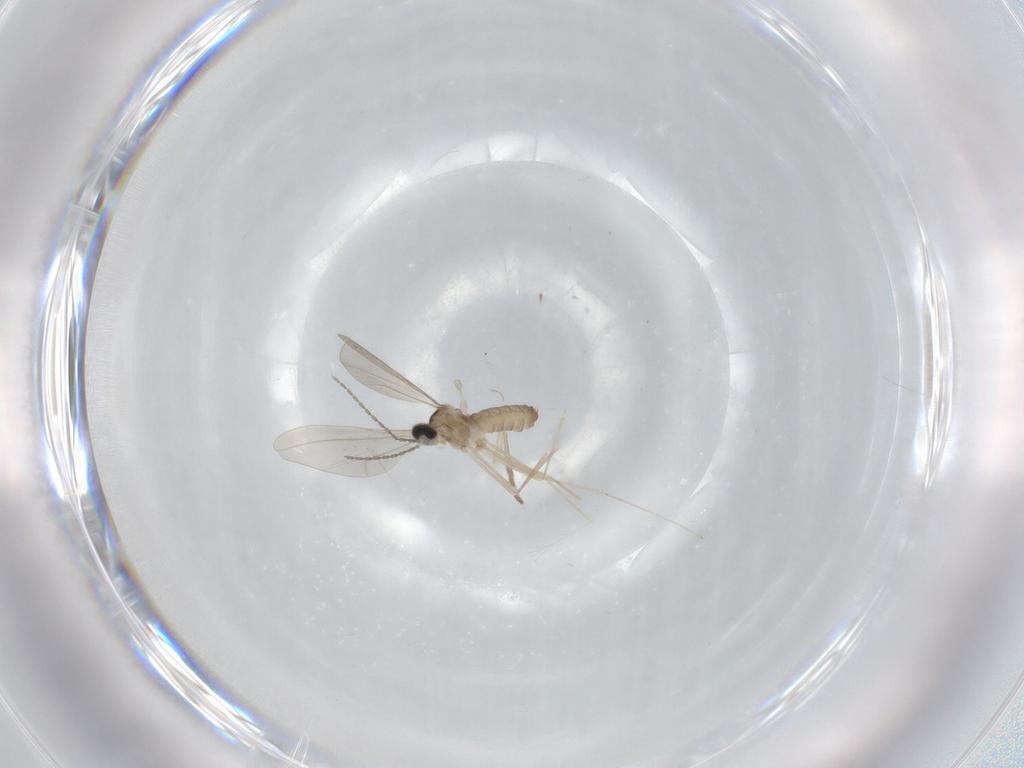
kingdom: Animalia
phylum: Arthropoda
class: Insecta
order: Diptera
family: Cecidomyiidae
